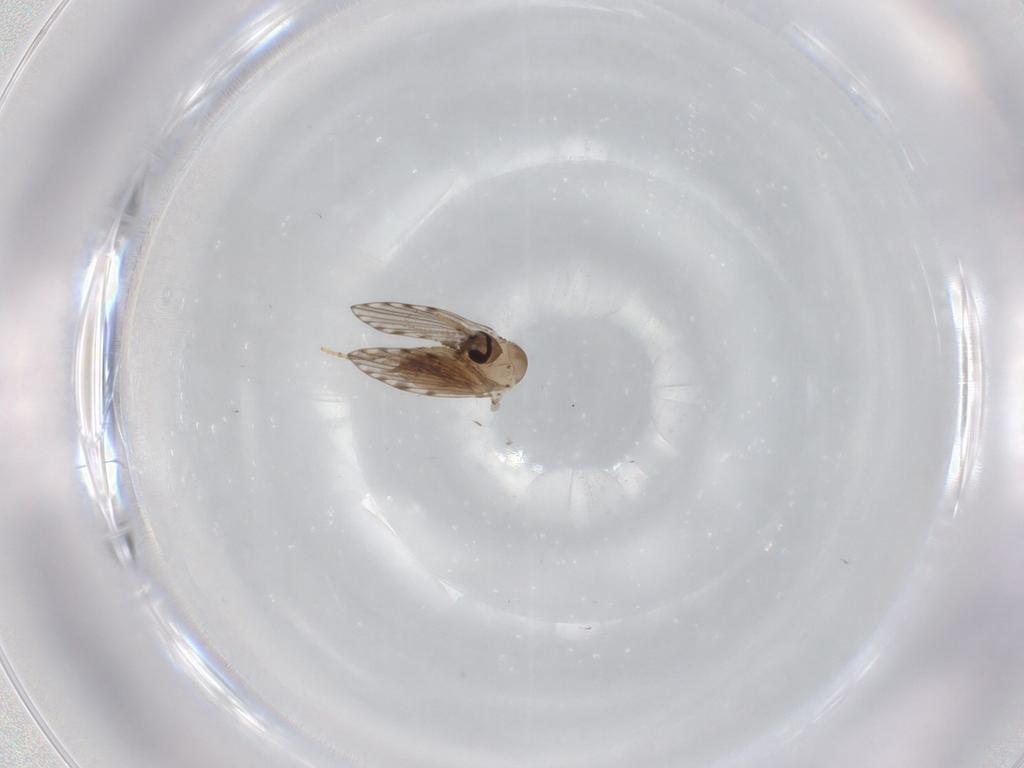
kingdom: Animalia
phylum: Arthropoda
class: Insecta
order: Diptera
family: Psychodidae
